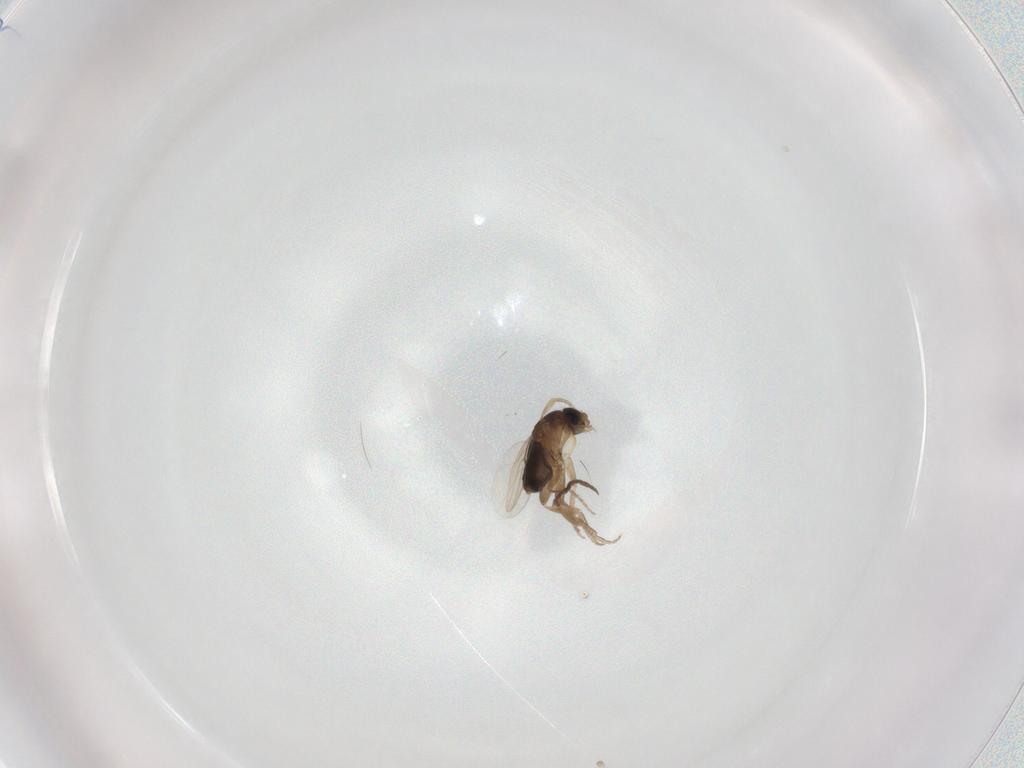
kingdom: Animalia
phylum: Arthropoda
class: Insecta
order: Diptera
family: Sciaridae
